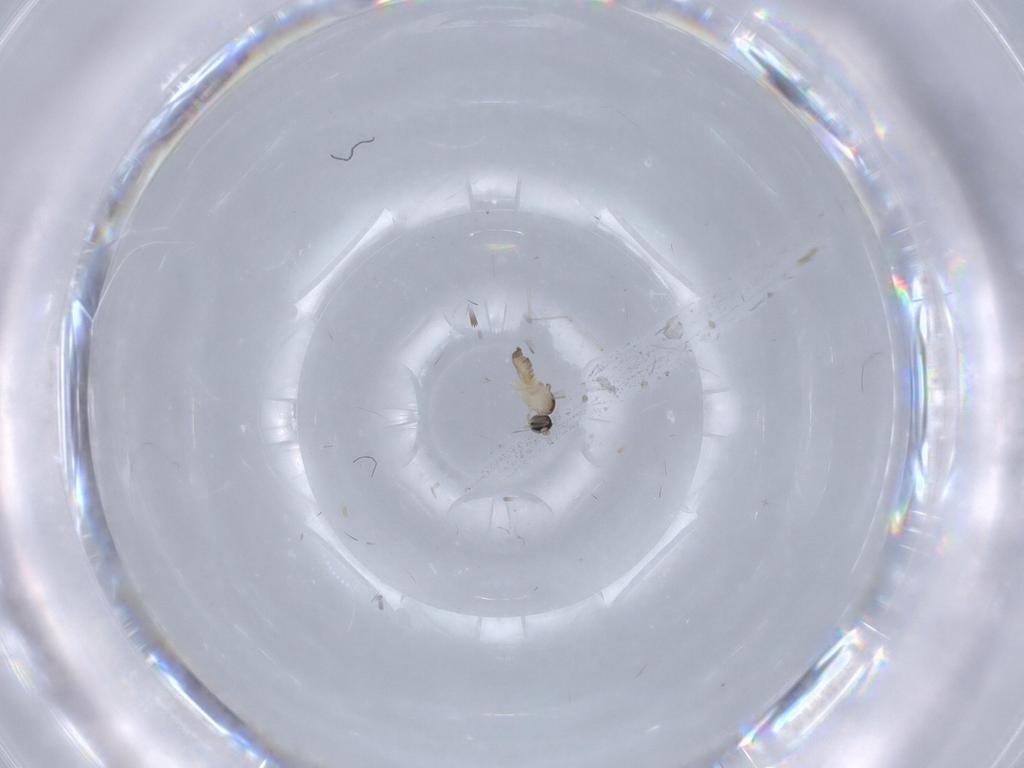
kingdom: Animalia
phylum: Arthropoda
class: Insecta
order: Diptera
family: Cecidomyiidae
